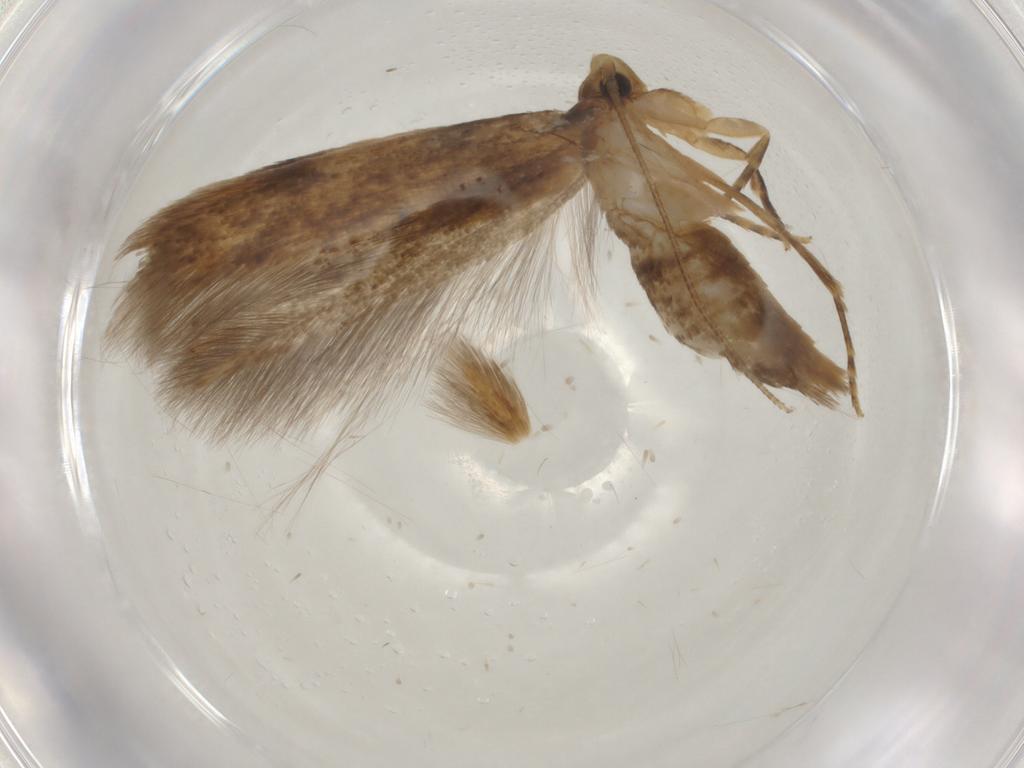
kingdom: Animalia
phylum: Arthropoda
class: Insecta
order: Lepidoptera
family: Tineidae
